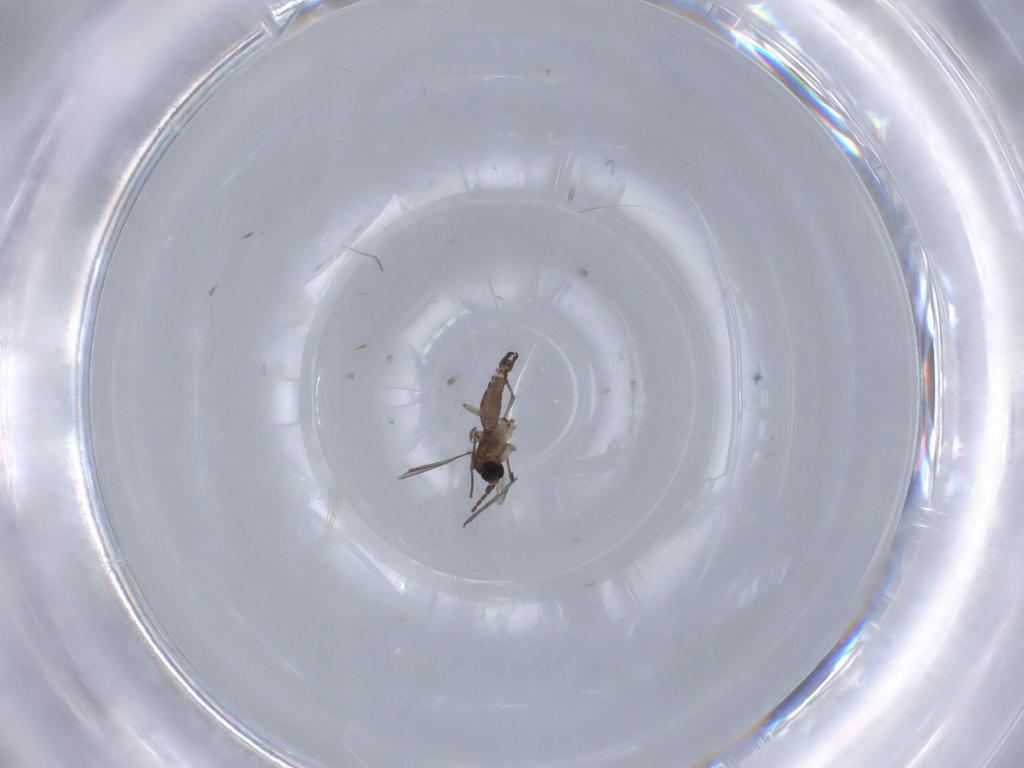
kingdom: Animalia
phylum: Arthropoda
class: Insecta
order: Diptera
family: Sciaridae
